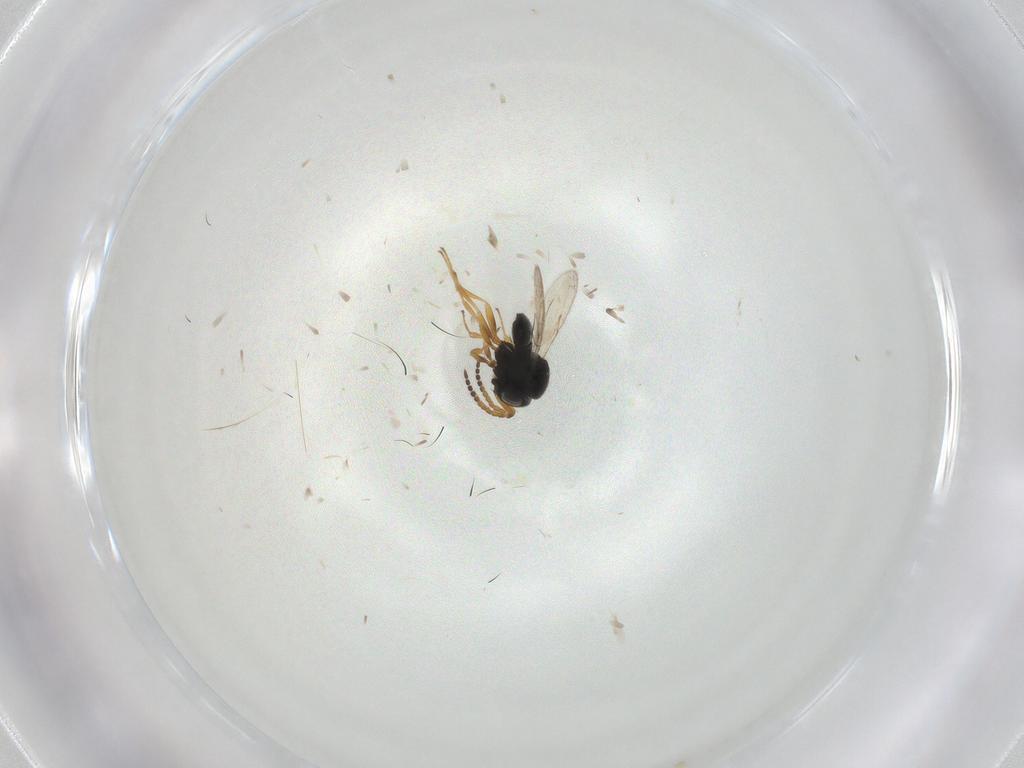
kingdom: Animalia
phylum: Arthropoda
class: Insecta
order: Hymenoptera
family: Scelionidae
